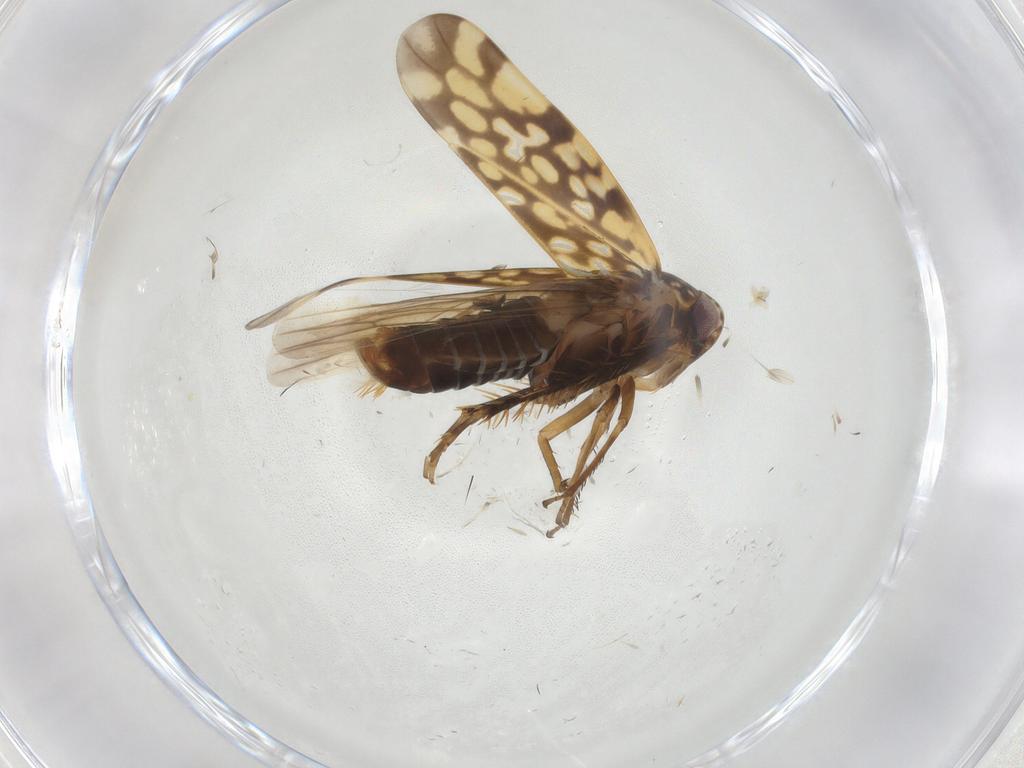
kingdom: Animalia
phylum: Arthropoda
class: Insecta
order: Hemiptera
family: Cicadellidae
